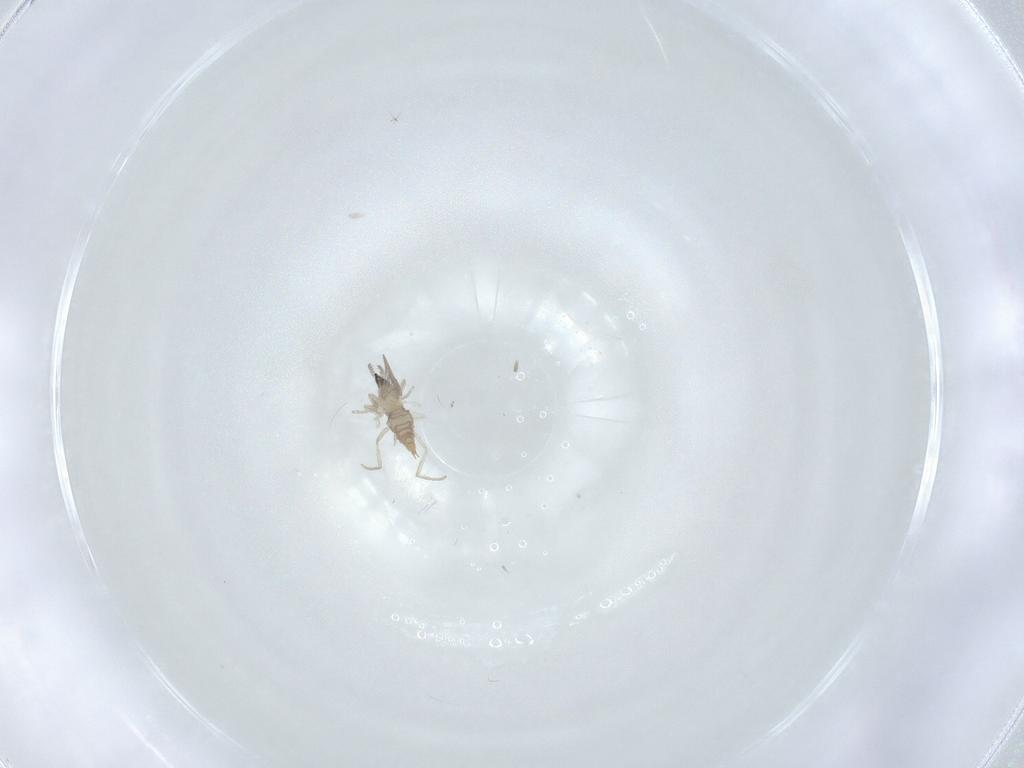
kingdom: Animalia
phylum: Arthropoda
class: Insecta
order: Diptera
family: Cecidomyiidae
